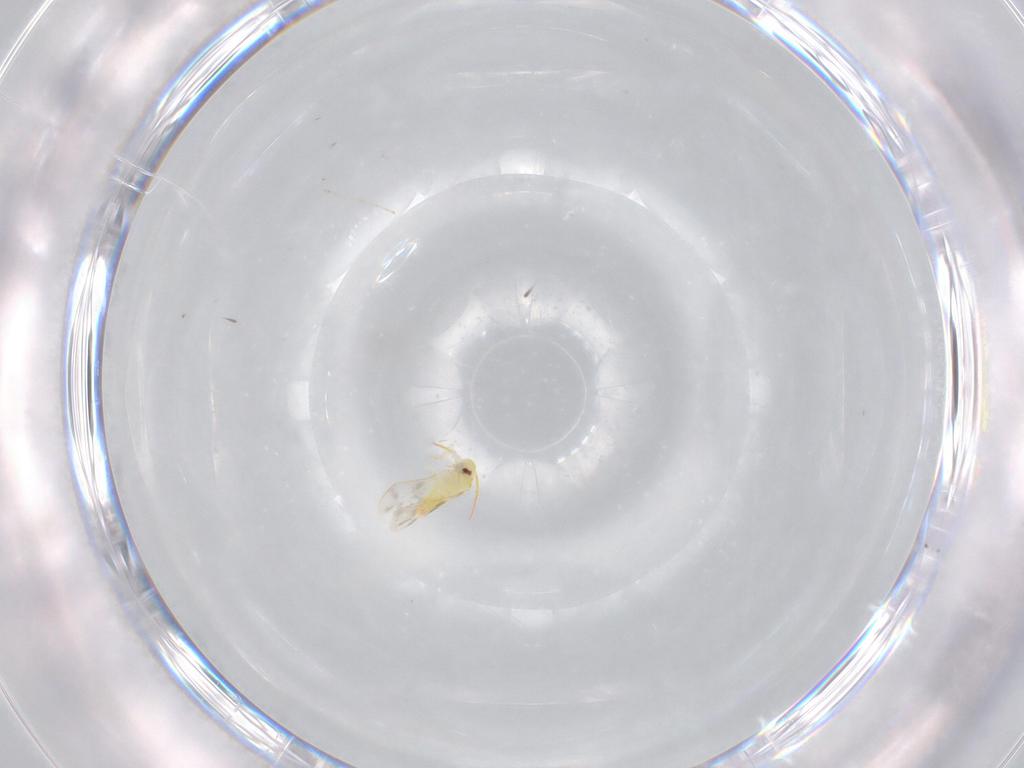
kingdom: Animalia
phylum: Arthropoda
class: Insecta
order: Hemiptera
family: Aleyrodidae
